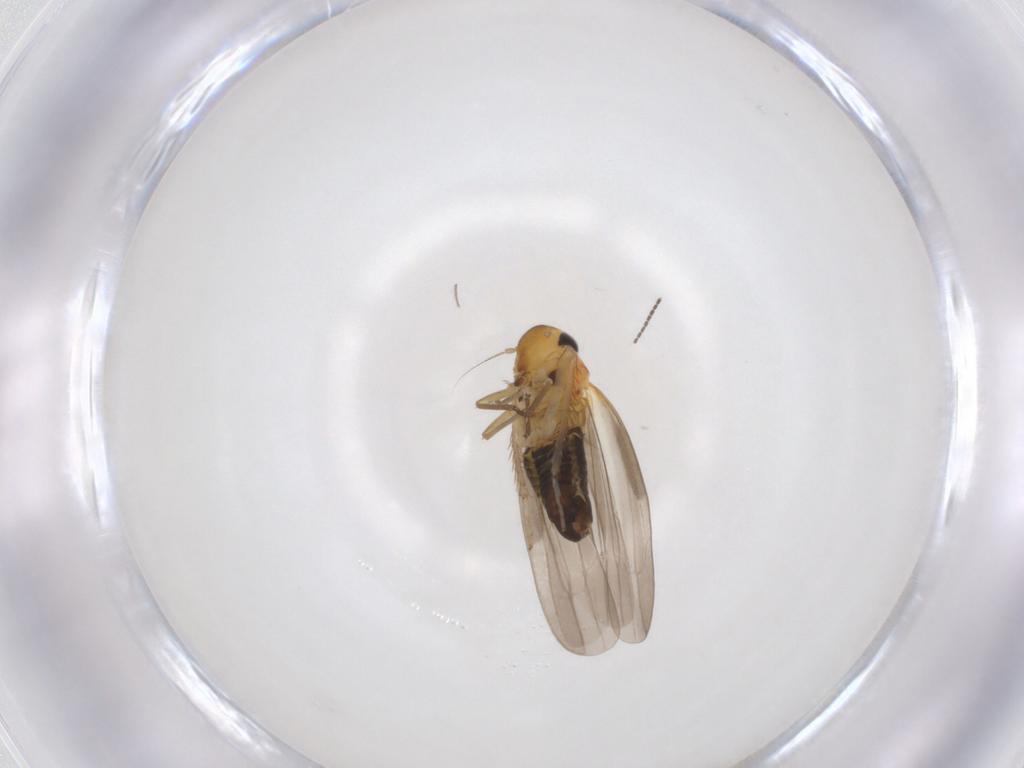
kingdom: Animalia
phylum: Arthropoda
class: Insecta
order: Hemiptera
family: Cicadellidae
